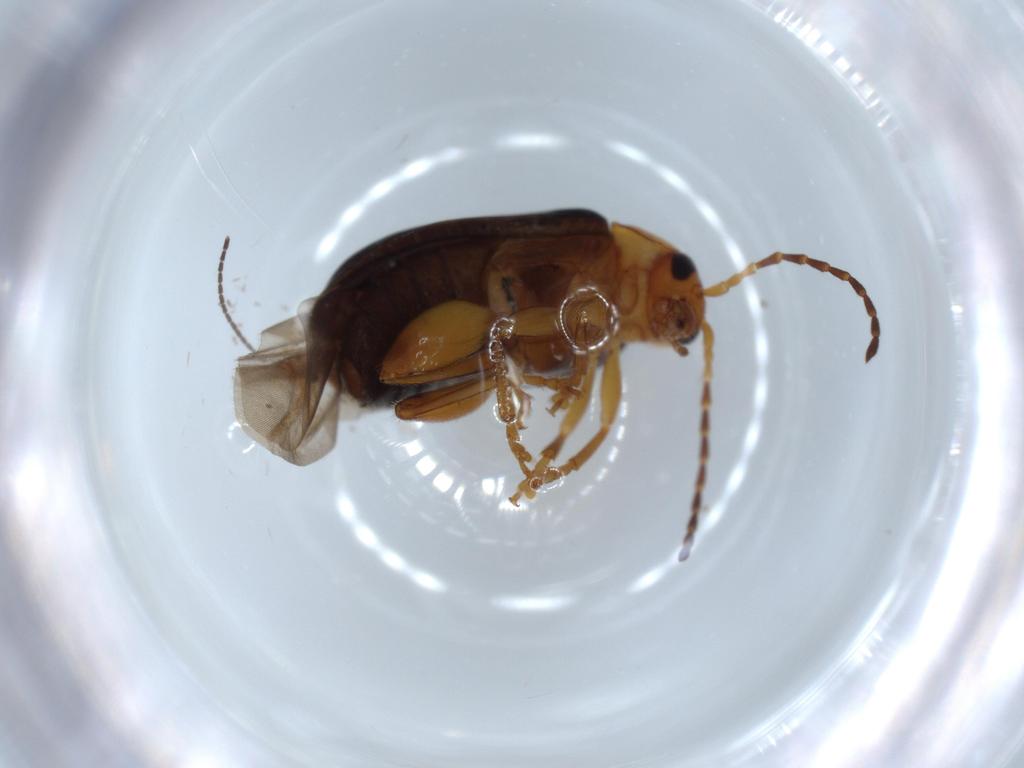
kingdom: Animalia
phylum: Arthropoda
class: Insecta
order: Coleoptera
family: Chrysomelidae
